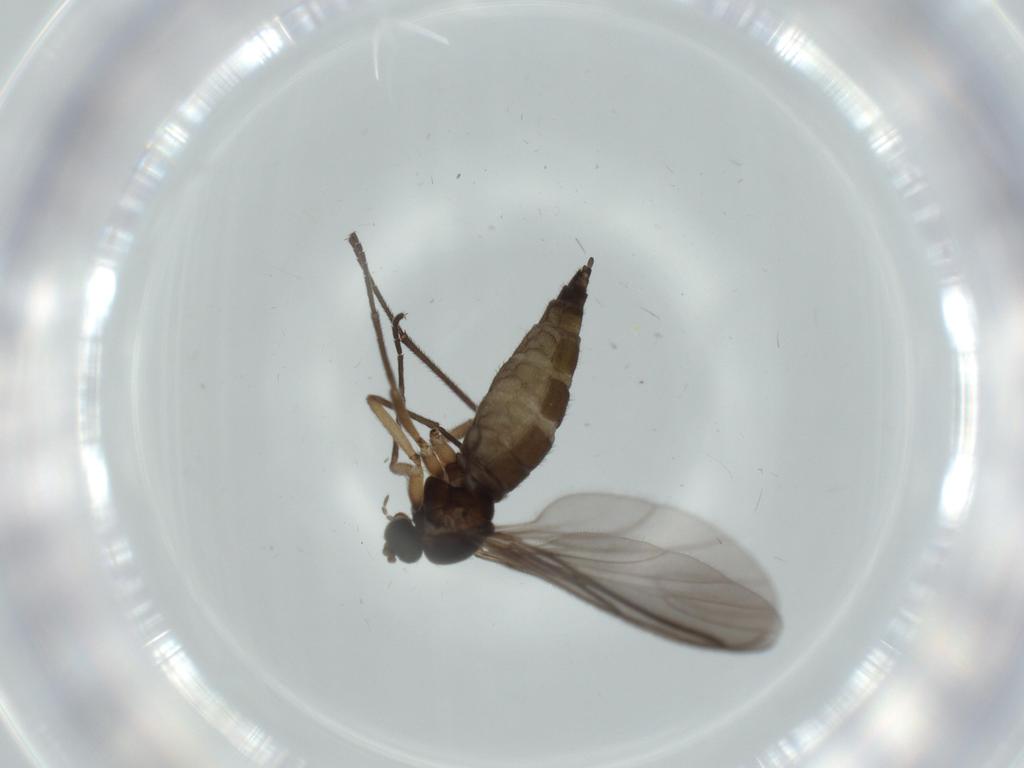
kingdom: Animalia
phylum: Arthropoda
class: Insecta
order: Diptera
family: Sciaridae
